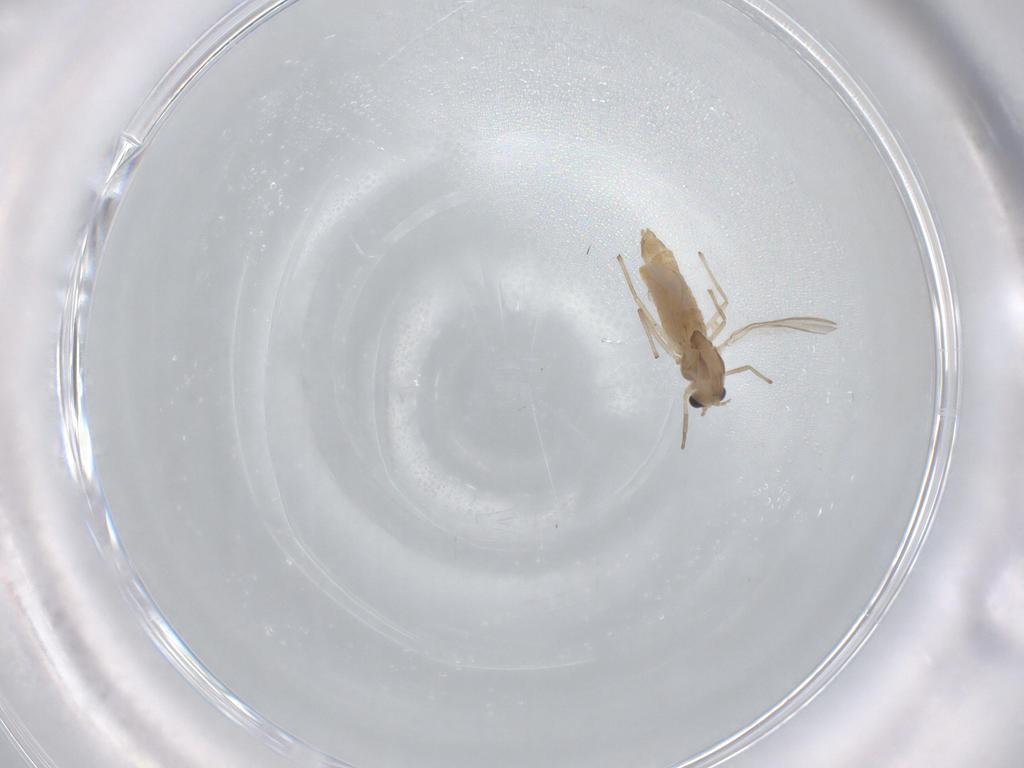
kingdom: Animalia
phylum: Arthropoda
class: Insecta
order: Diptera
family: Chironomidae
